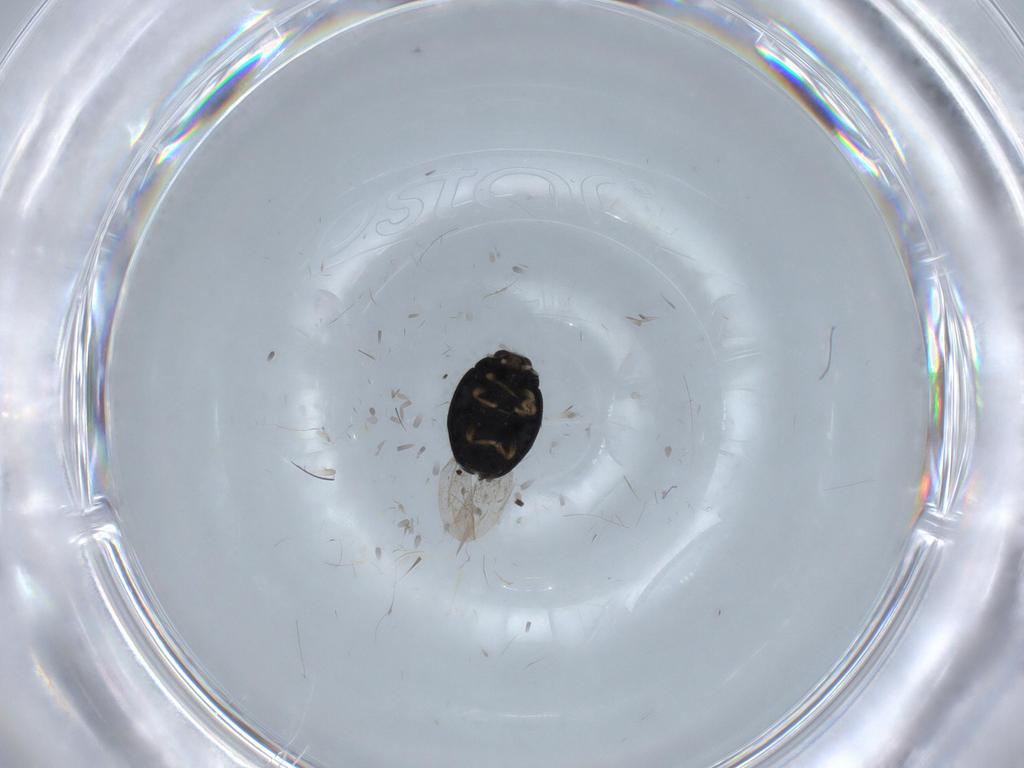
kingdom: Animalia
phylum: Arthropoda
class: Insecta
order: Coleoptera
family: Coccinellidae
